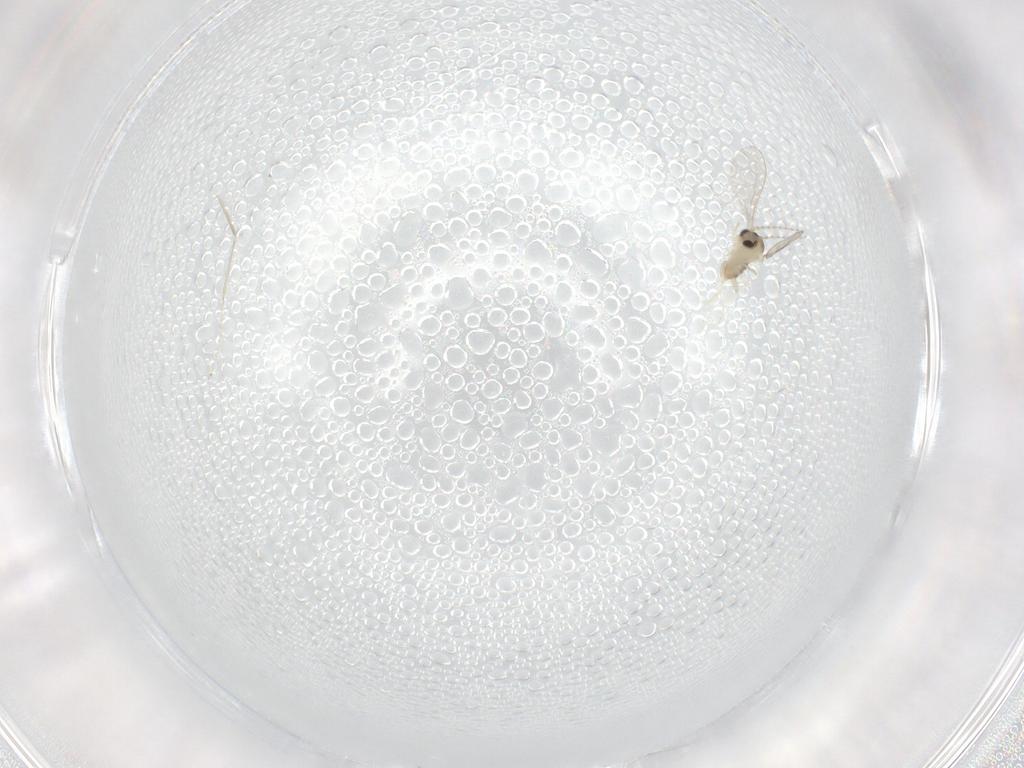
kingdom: Animalia
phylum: Arthropoda
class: Insecta
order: Diptera
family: Cecidomyiidae
